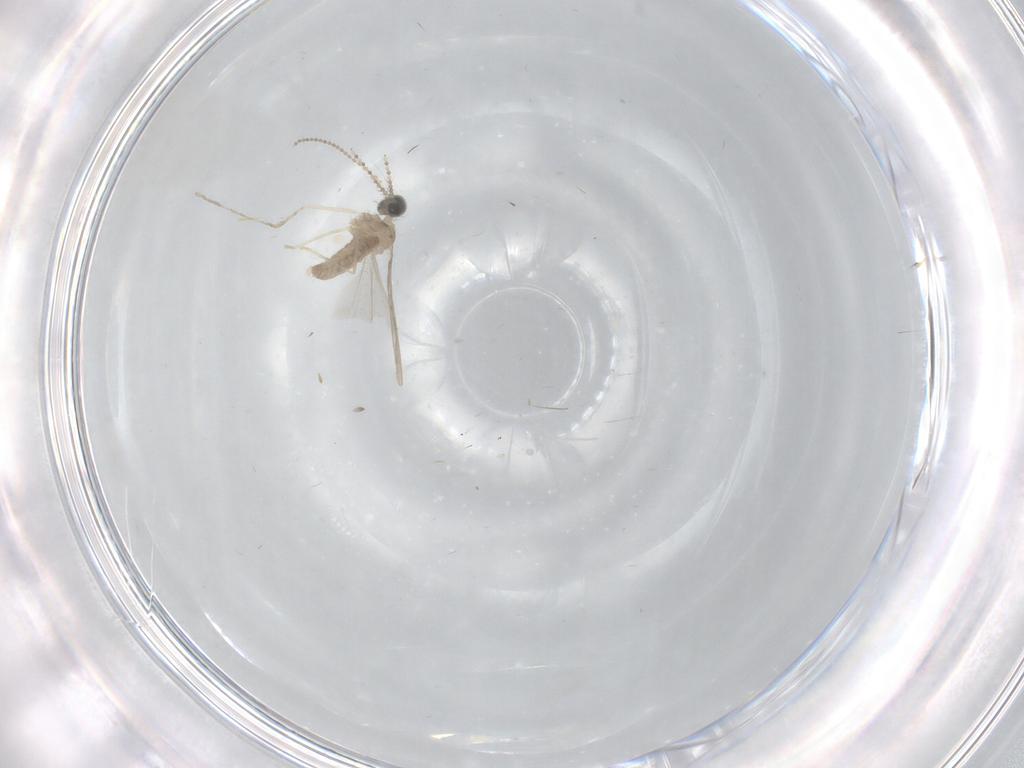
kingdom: Animalia
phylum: Arthropoda
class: Insecta
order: Diptera
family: Cecidomyiidae
